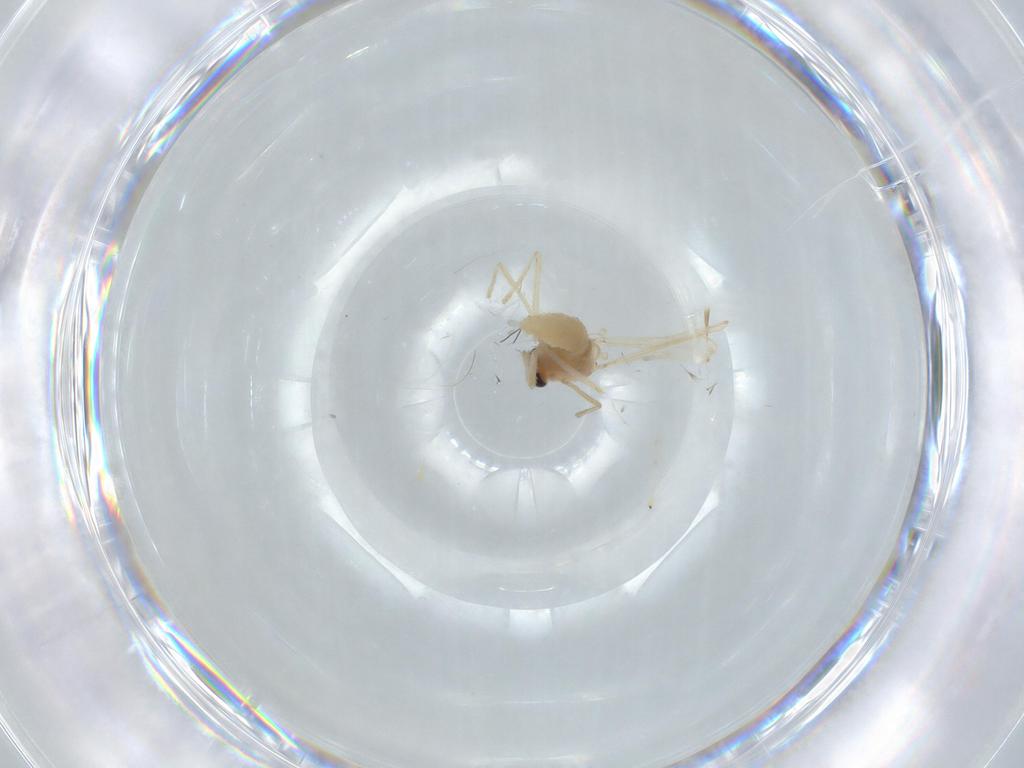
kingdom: Animalia
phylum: Arthropoda
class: Insecta
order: Diptera
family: Chironomidae
